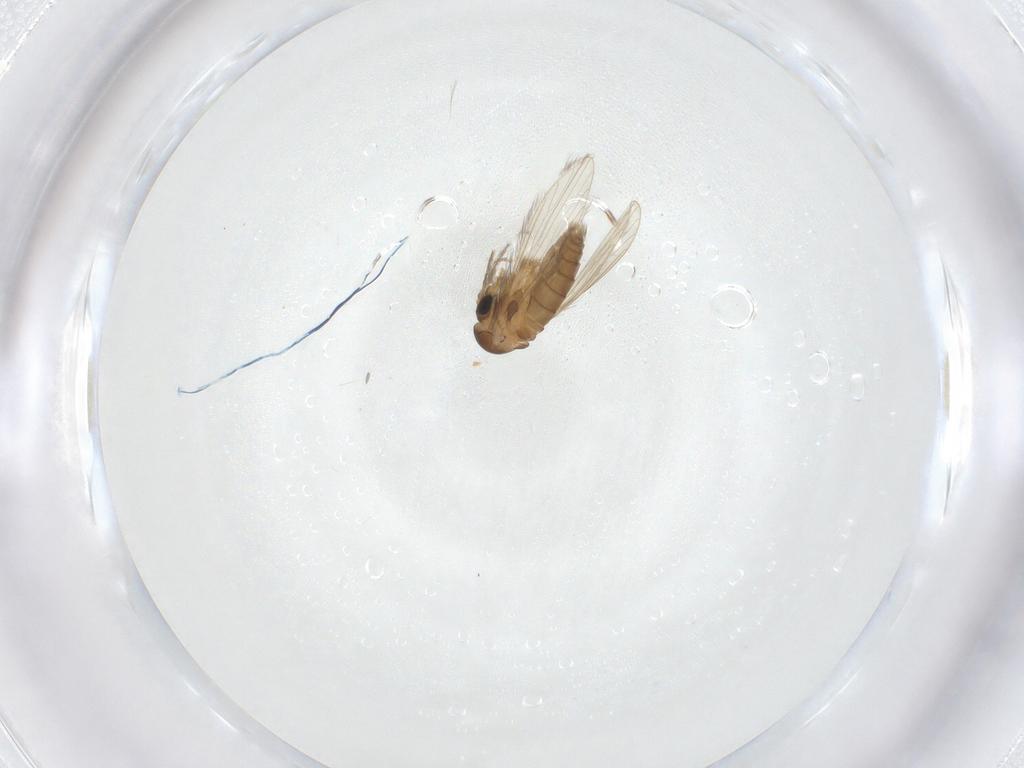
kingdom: Animalia
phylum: Arthropoda
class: Insecta
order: Diptera
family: Psychodidae
